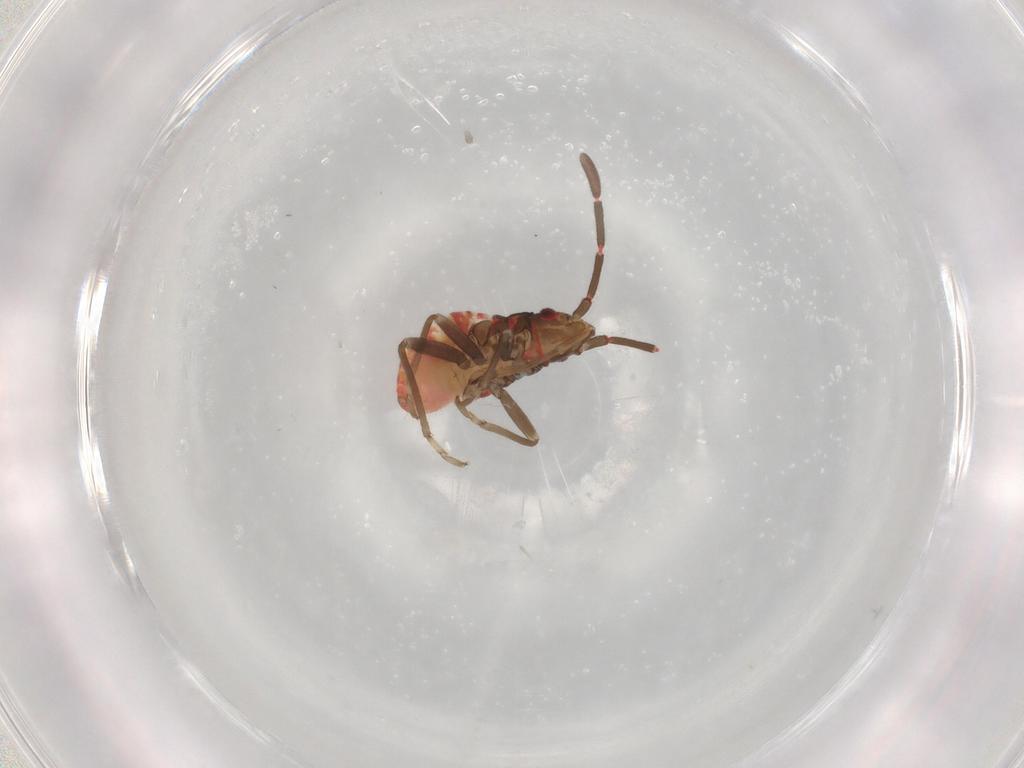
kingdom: Animalia
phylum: Arthropoda
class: Insecta
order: Hemiptera
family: Rhyparochromidae
